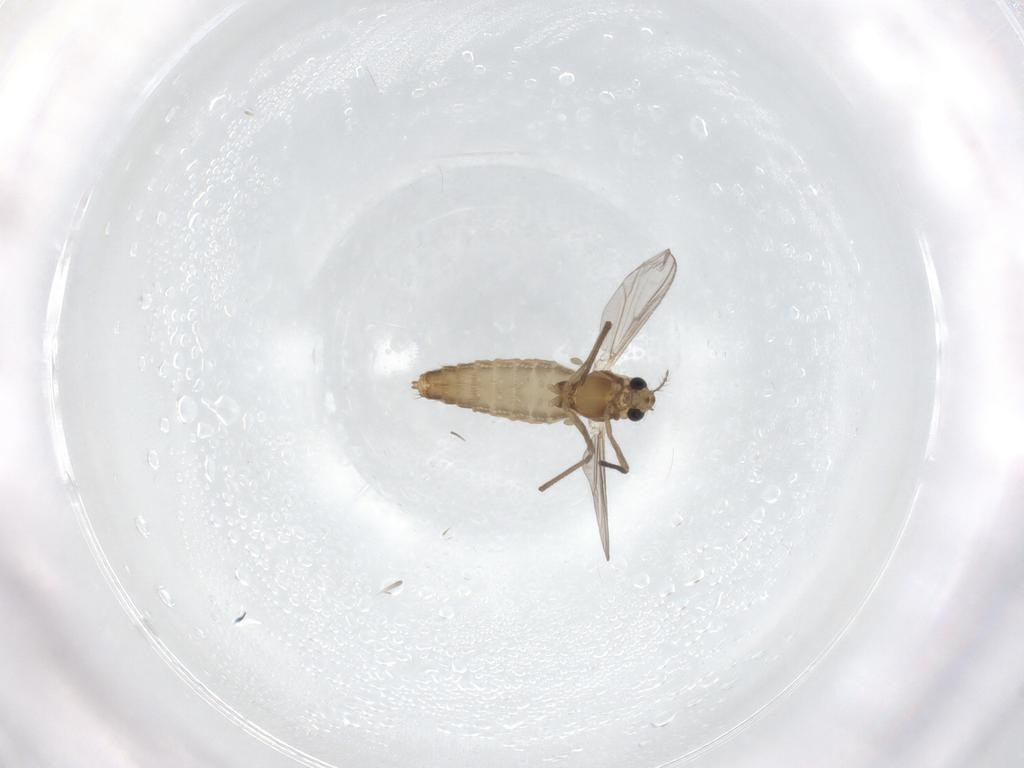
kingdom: Animalia
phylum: Arthropoda
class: Insecta
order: Diptera
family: Chironomidae
